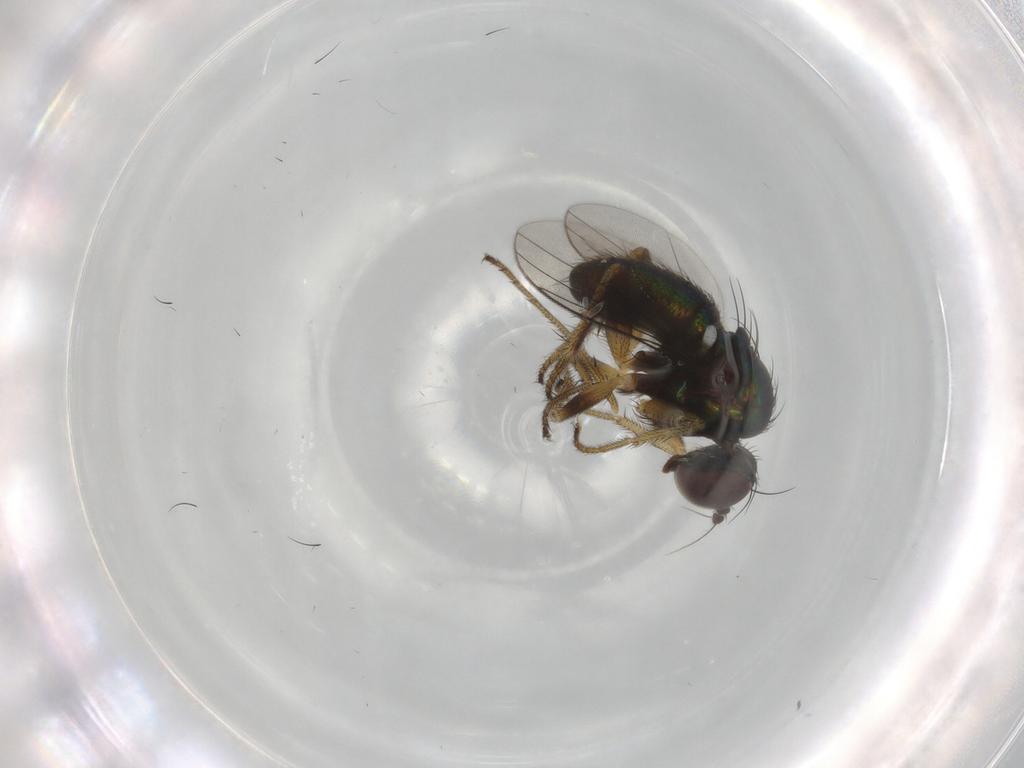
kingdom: Animalia
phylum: Arthropoda
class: Insecta
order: Diptera
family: Dolichopodidae
